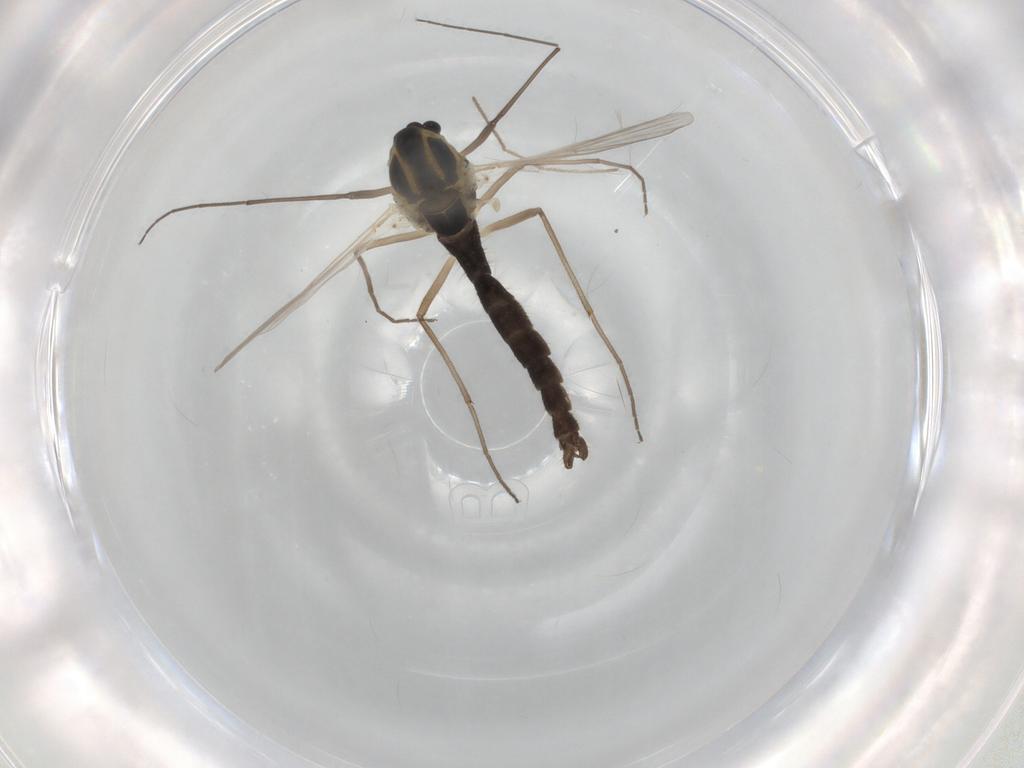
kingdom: Animalia
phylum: Arthropoda
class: Insecta
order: Diptera
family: Chironomidae
